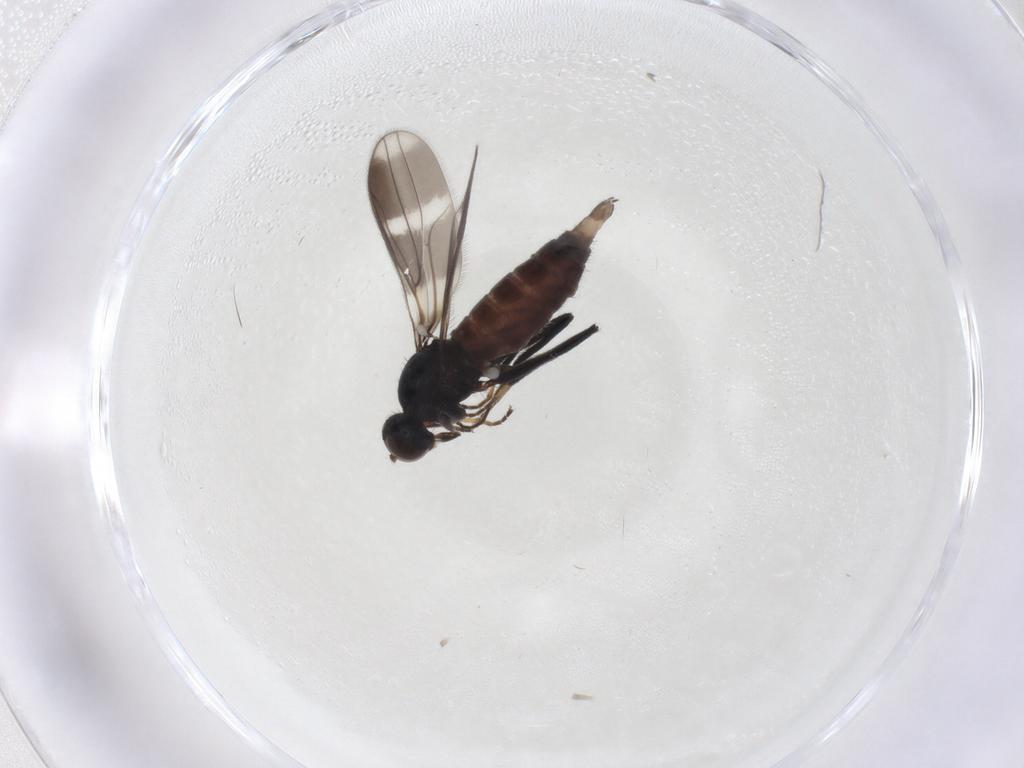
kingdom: Animalia
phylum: Arthropoda
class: Insecta
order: Diptera
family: Hybotidae
